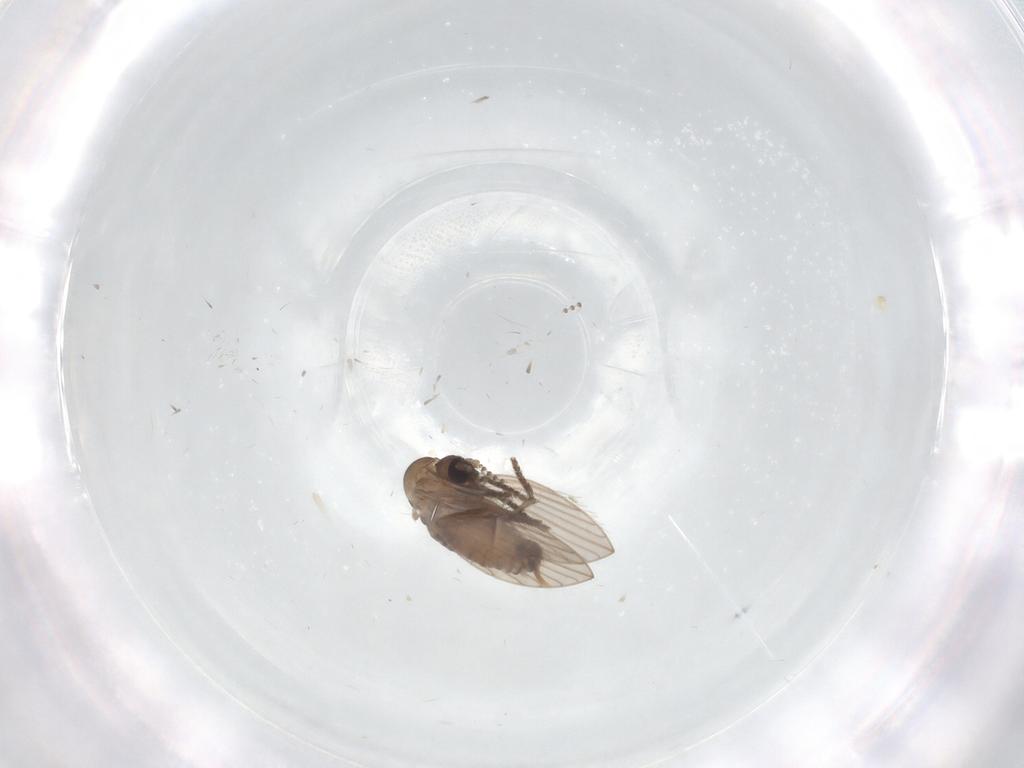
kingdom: Animalia
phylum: Arthropoda
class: Insecta
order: Diptera
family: Psychodidae
